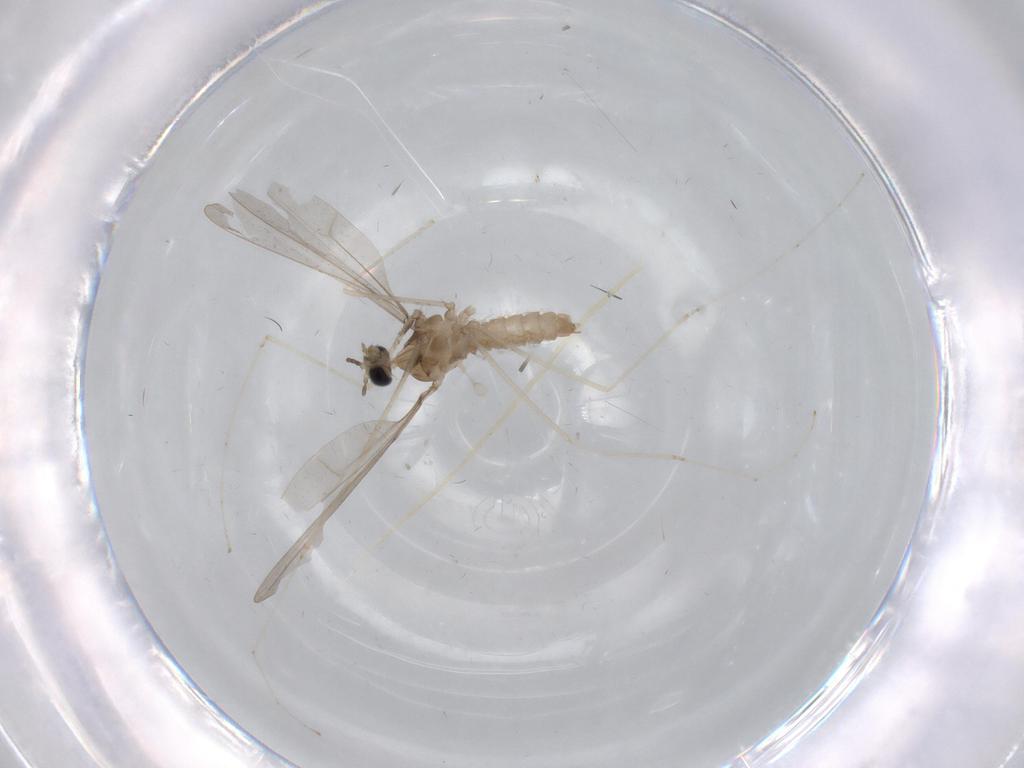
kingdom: Animalia
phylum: Arthropoda
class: Insecta
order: Diptera
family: Cecidomyiidae
